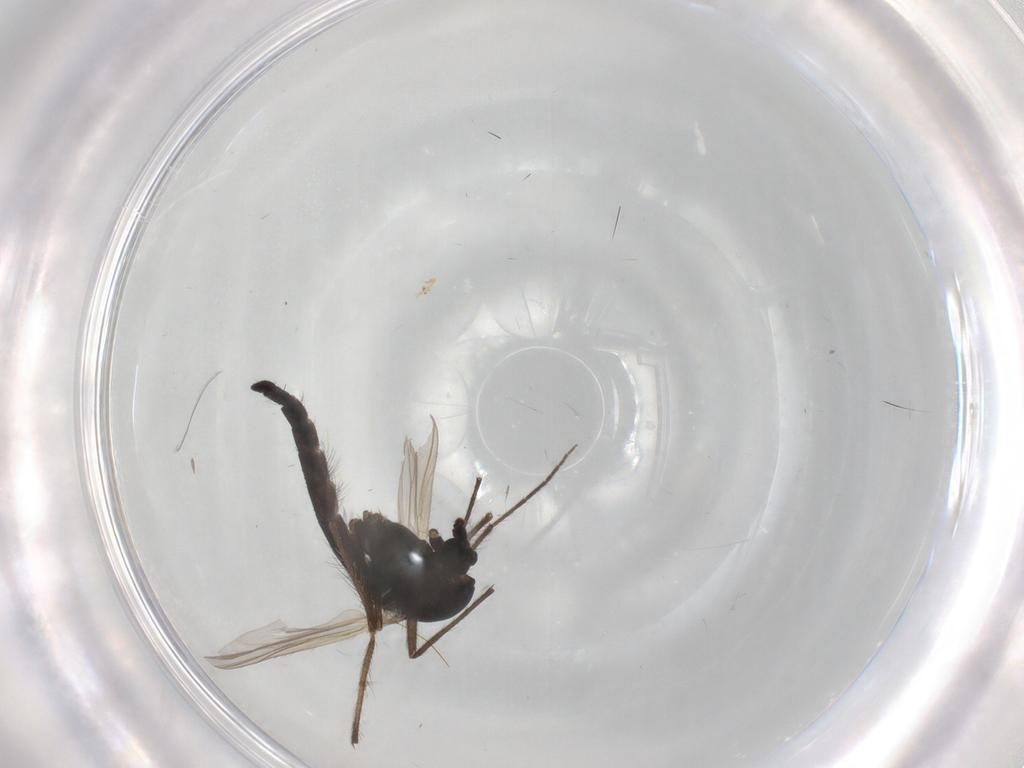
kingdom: Animalia
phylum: Arthropoda
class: Insecta
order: Diptera
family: Chironomidae
